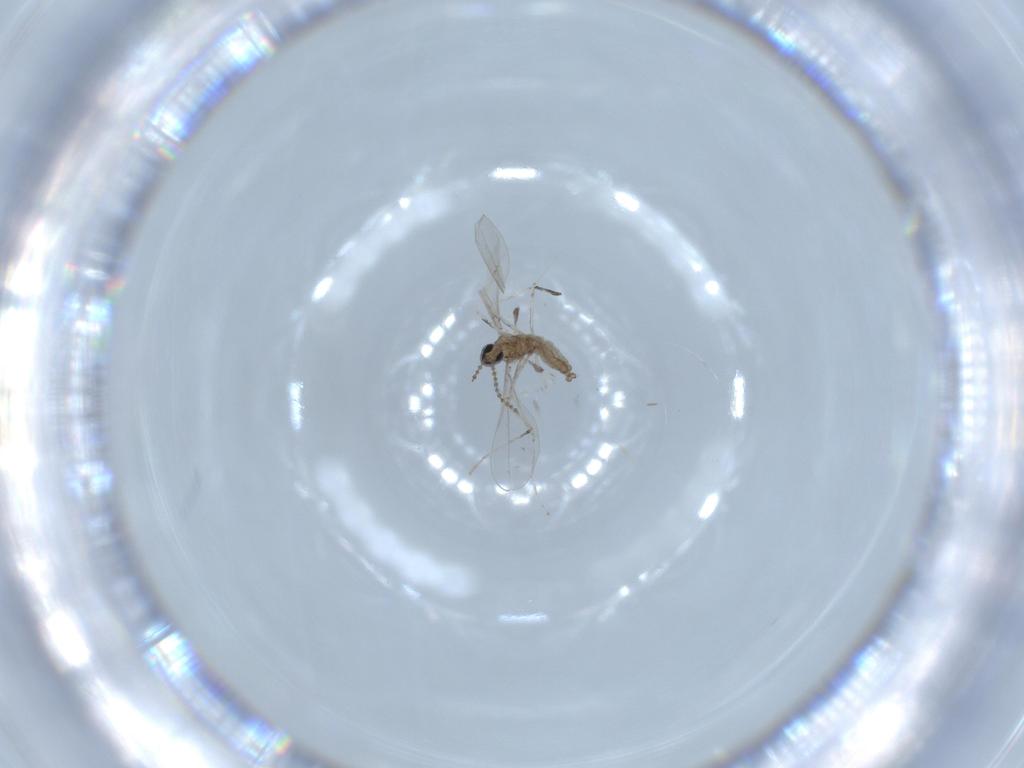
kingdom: Animalia
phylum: Arthropoda
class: Insecta
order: Diptera
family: Cecidomyiidae
